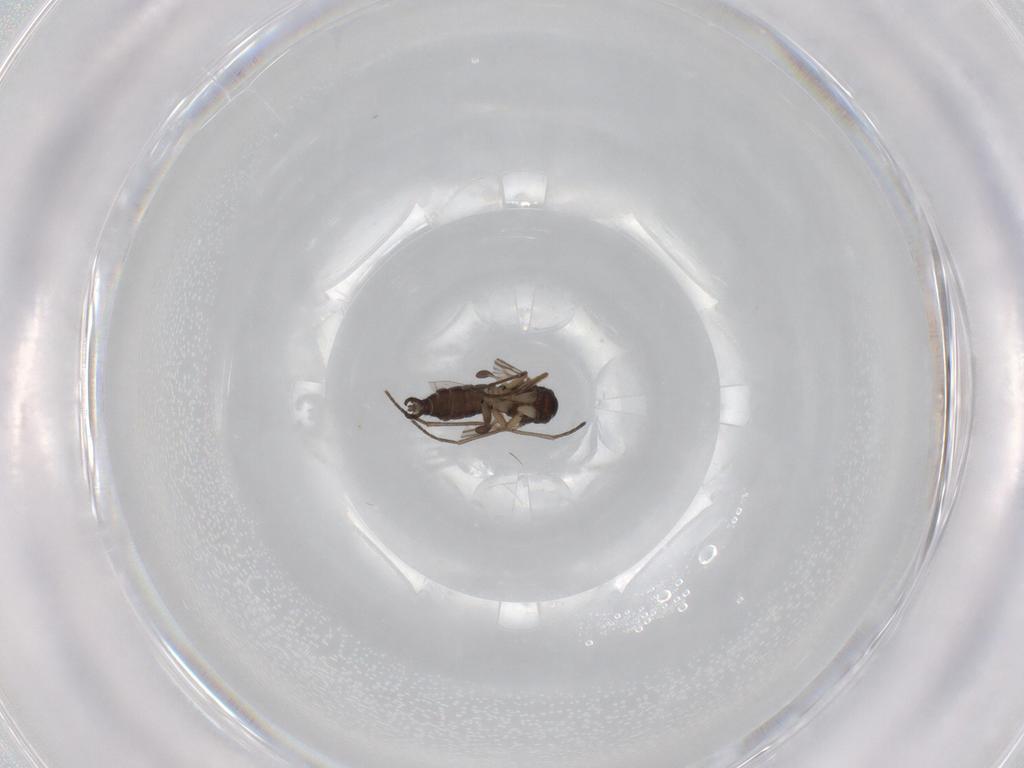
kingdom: Animalia
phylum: Arthropoda
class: Insecta
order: Diptera
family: Sciaridae
